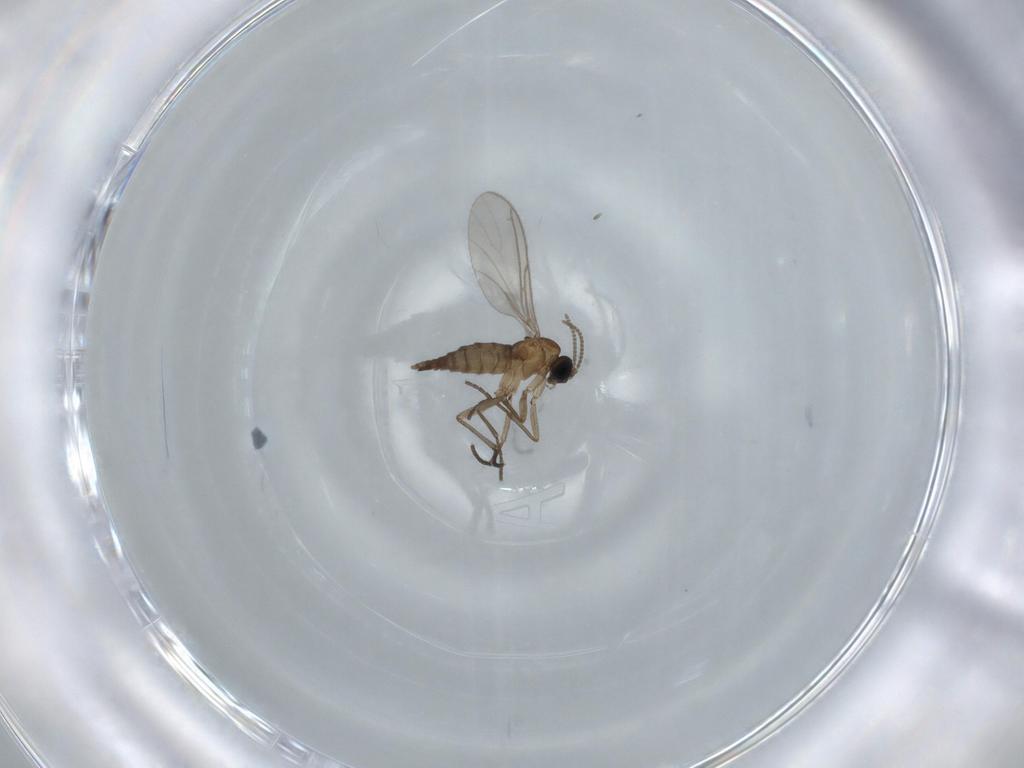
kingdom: Animalia
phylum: Arthropoda
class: Insecta
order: Diptera
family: Sciaridae
